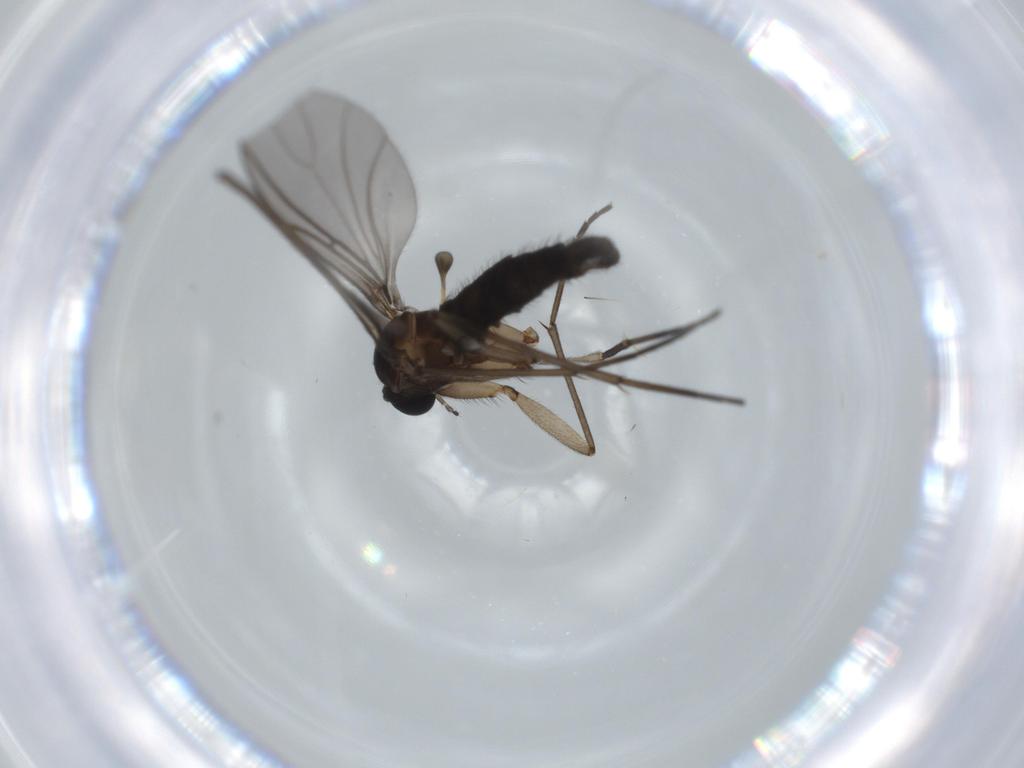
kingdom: Animalia
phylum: Arthropoda
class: Insecta
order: Diptera
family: Sciaridae
